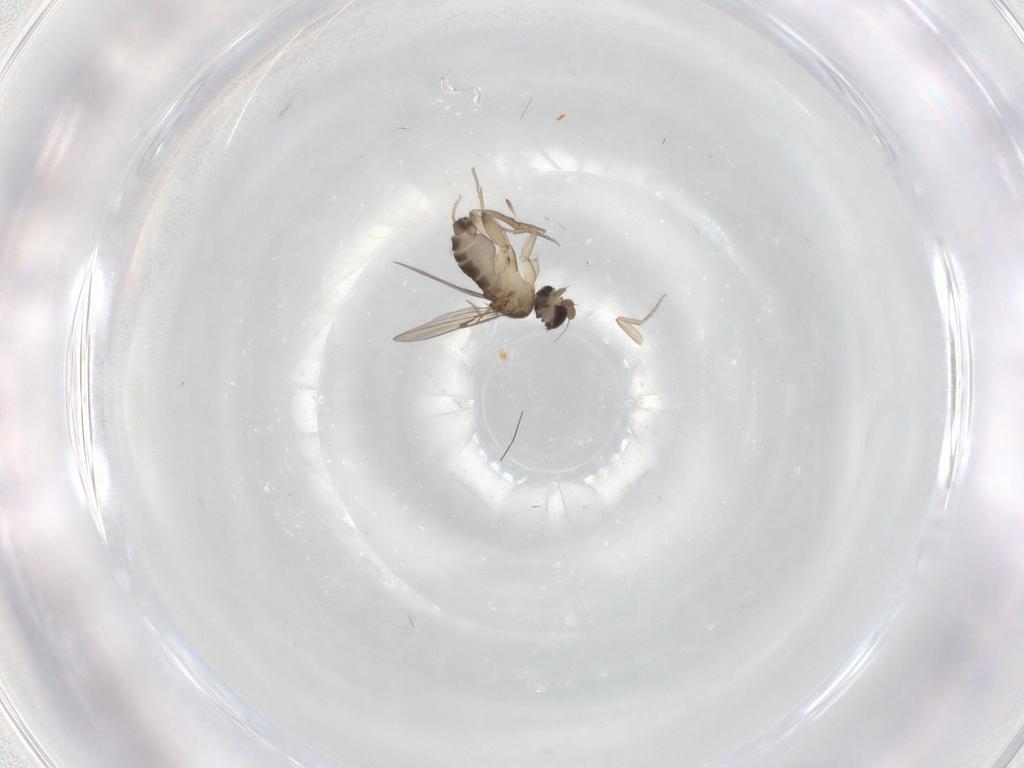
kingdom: Animalia
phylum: Arthropoda
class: Insecta
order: Diptera
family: Phoridae
